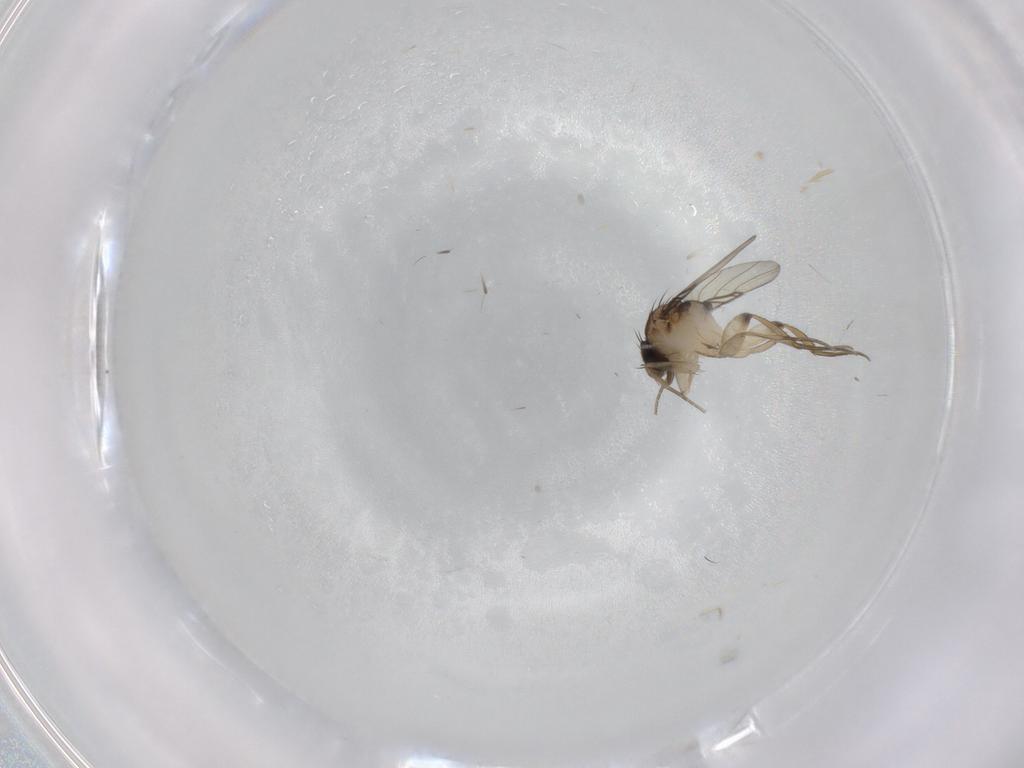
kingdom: Animalia
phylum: Arthropoda
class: Insecta
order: Diptera
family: Phoridae
